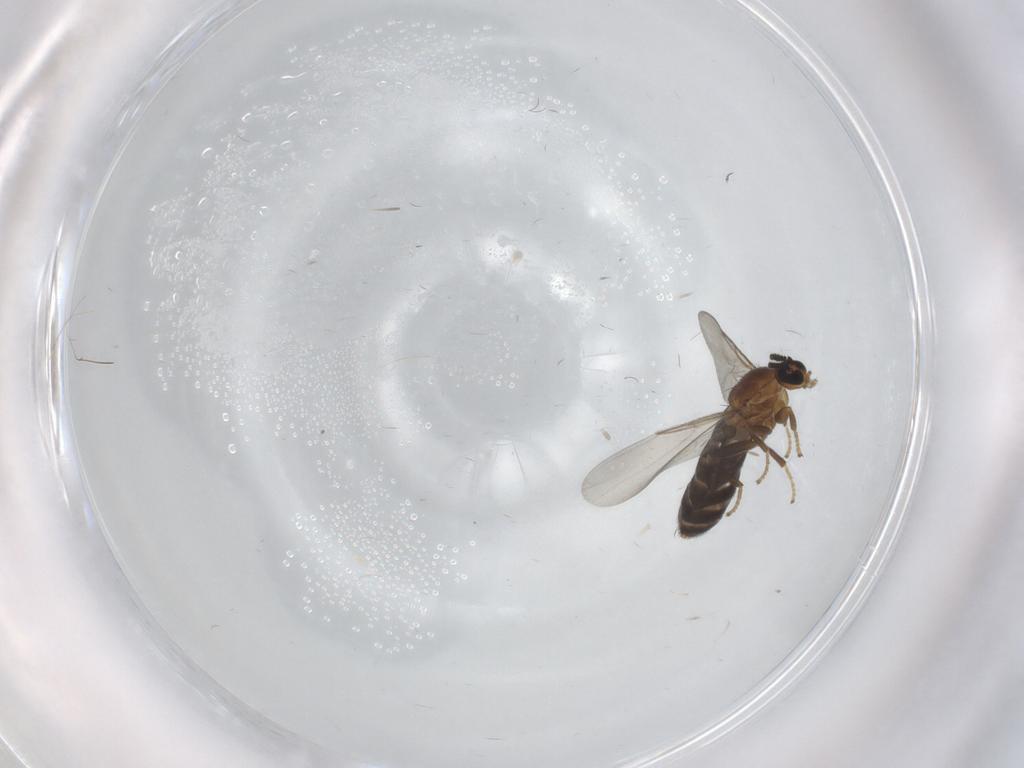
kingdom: Animalia
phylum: Arthropoda
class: Insecta
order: Diptera
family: Scatopsidae
